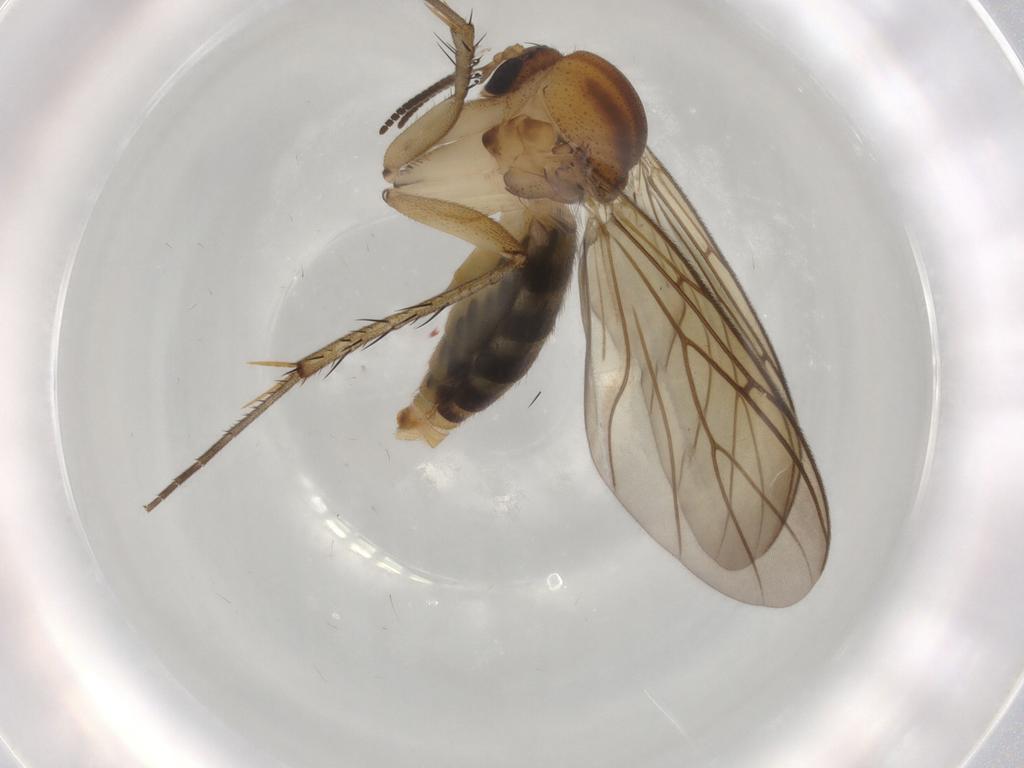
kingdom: Animalia
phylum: Arthropoda
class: Insecta
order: Diptera
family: Mycetophilidae
